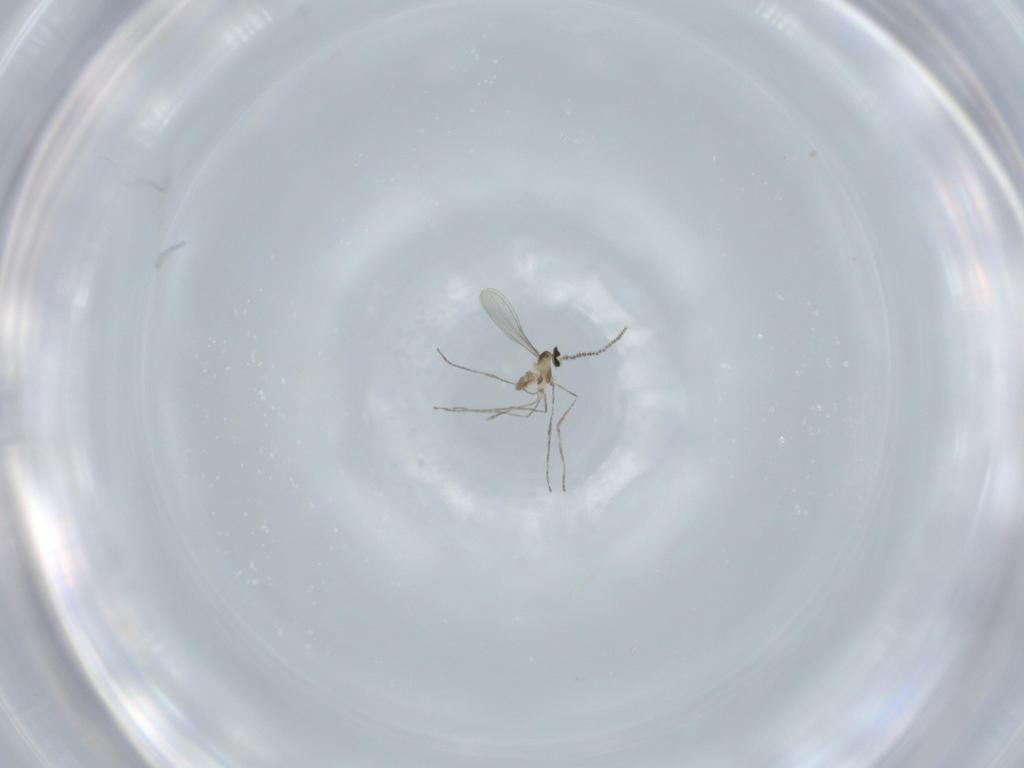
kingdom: Animalia
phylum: Arthropoda
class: Insecta
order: Diptera
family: Cecidomyiidae
